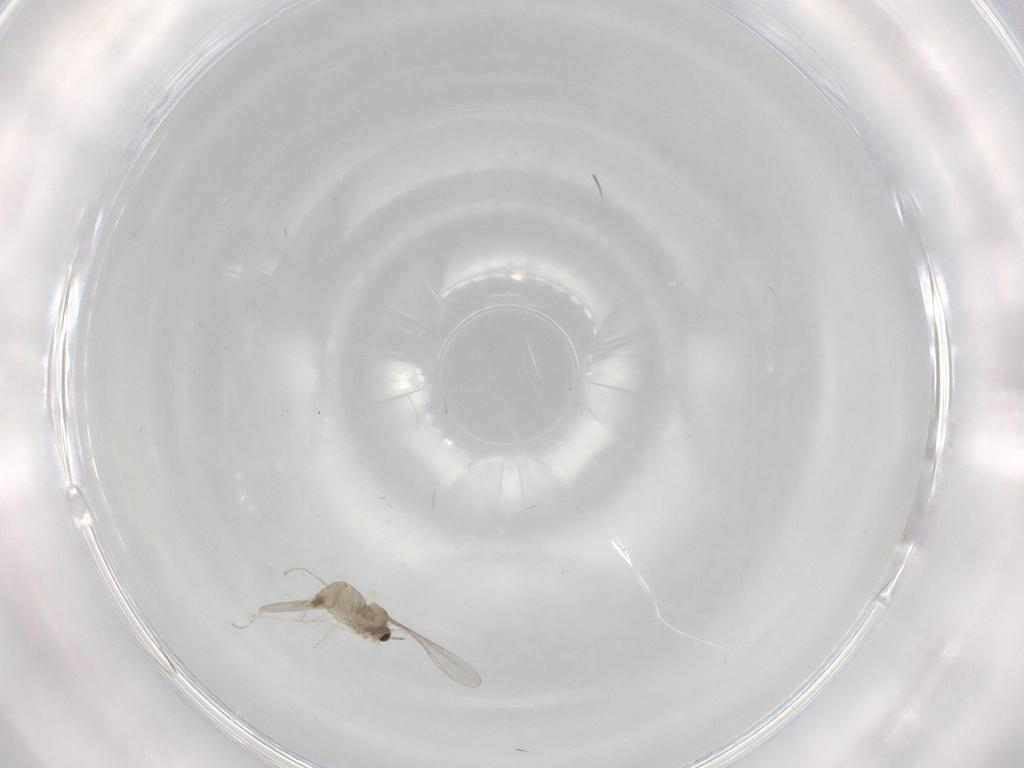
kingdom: Animalia
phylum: Arthropoda
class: Insecta
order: Diptera
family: Cecidomyiidae
